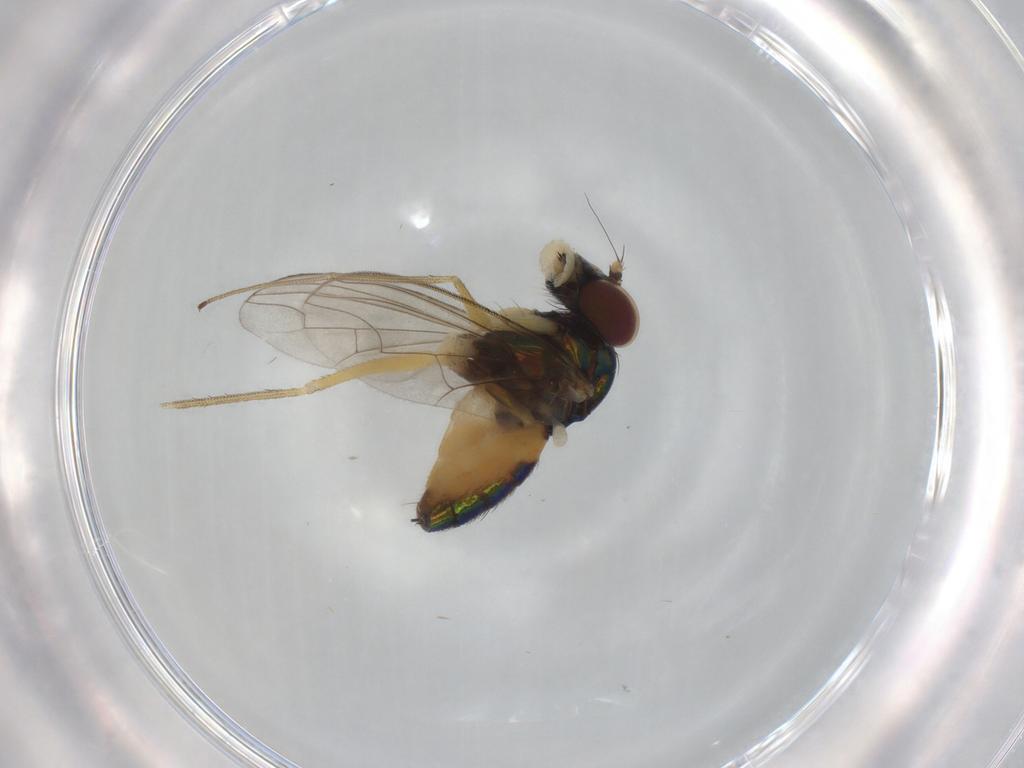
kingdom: Animalia
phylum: Arthropoda
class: Insecta
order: Diptera
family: Dolichopodidae
